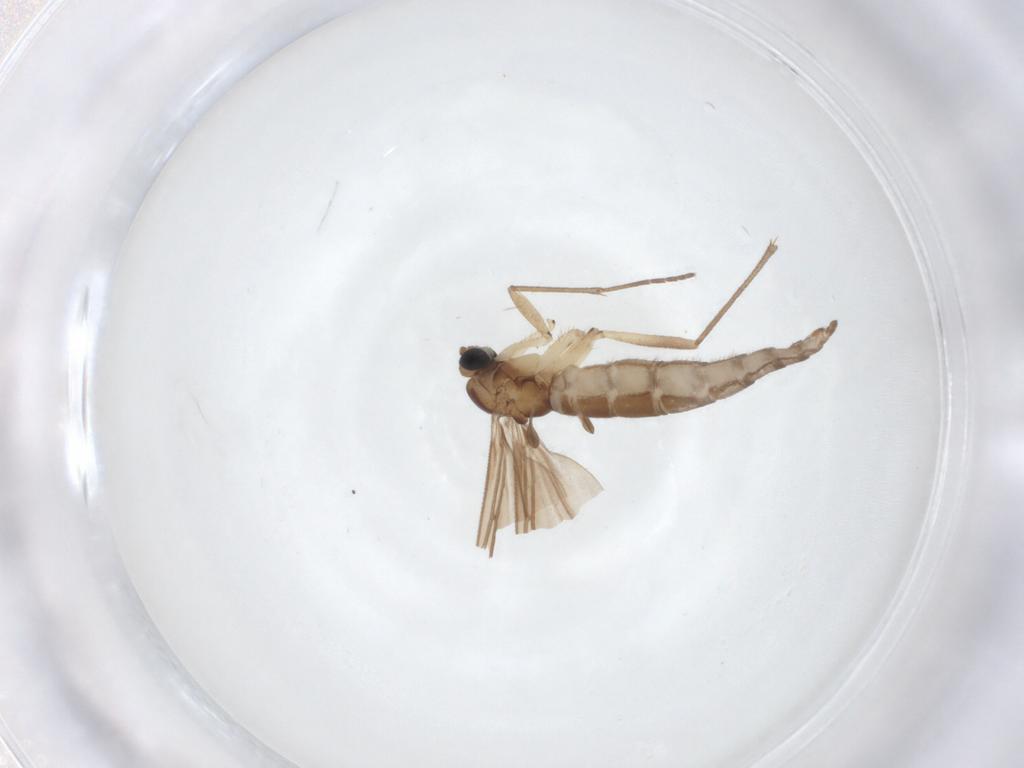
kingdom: Animalia
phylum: Arthropoda
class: Insecta
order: Diptera
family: Sciaridae
